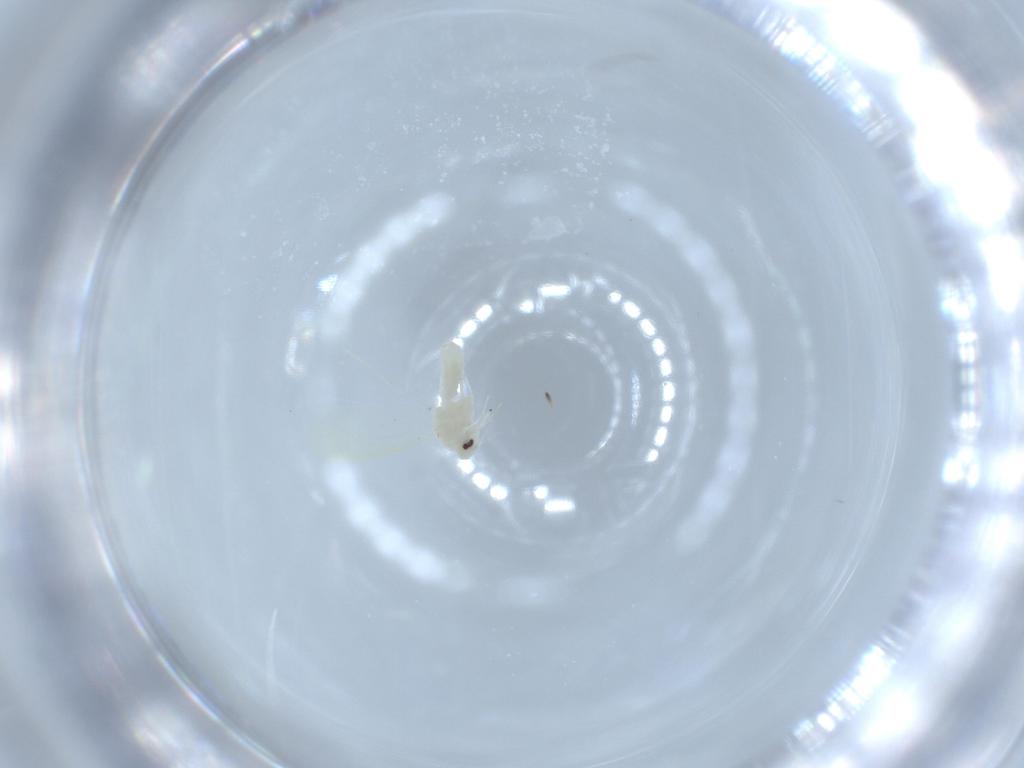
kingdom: Animalia
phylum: Arthropoda
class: Insecta
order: Hemiptera
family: Aleyrodidae
